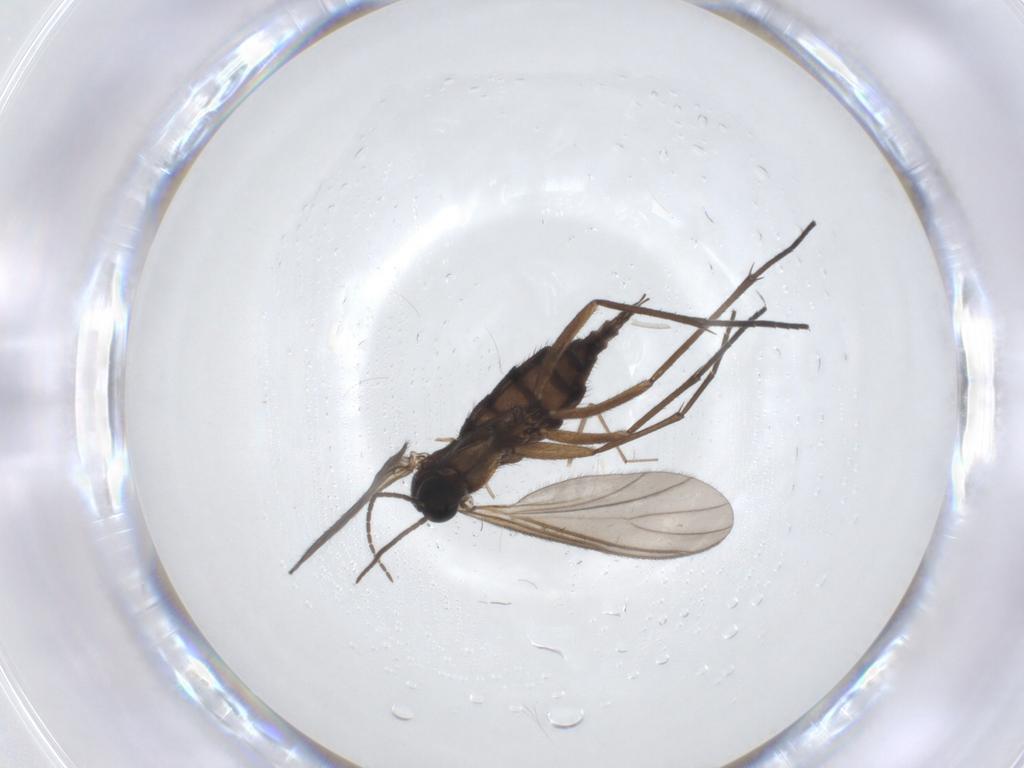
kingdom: Animalia
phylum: Arthropoda
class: Insecta
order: Diptera
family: Sciaridae
